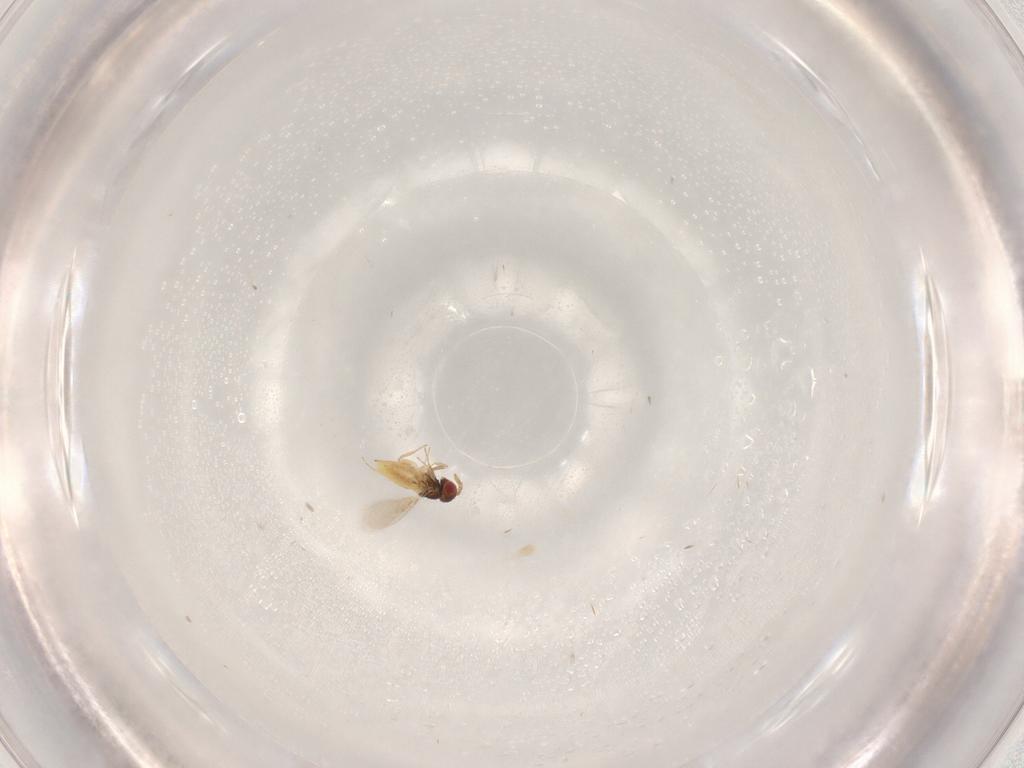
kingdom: Animalia
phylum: Arthropoda
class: Insecta
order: Hymenoptera
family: Trichogrammatidae
